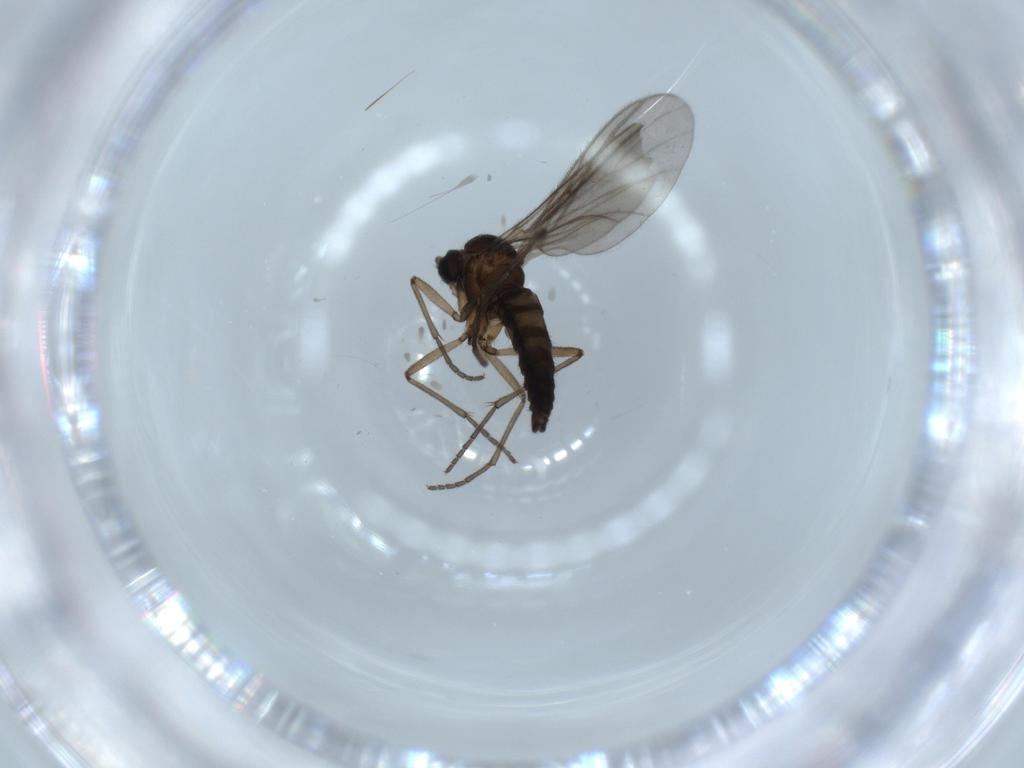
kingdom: Animalia
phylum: Arthropoda
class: Insecta
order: Diptera
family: Sciaridae
